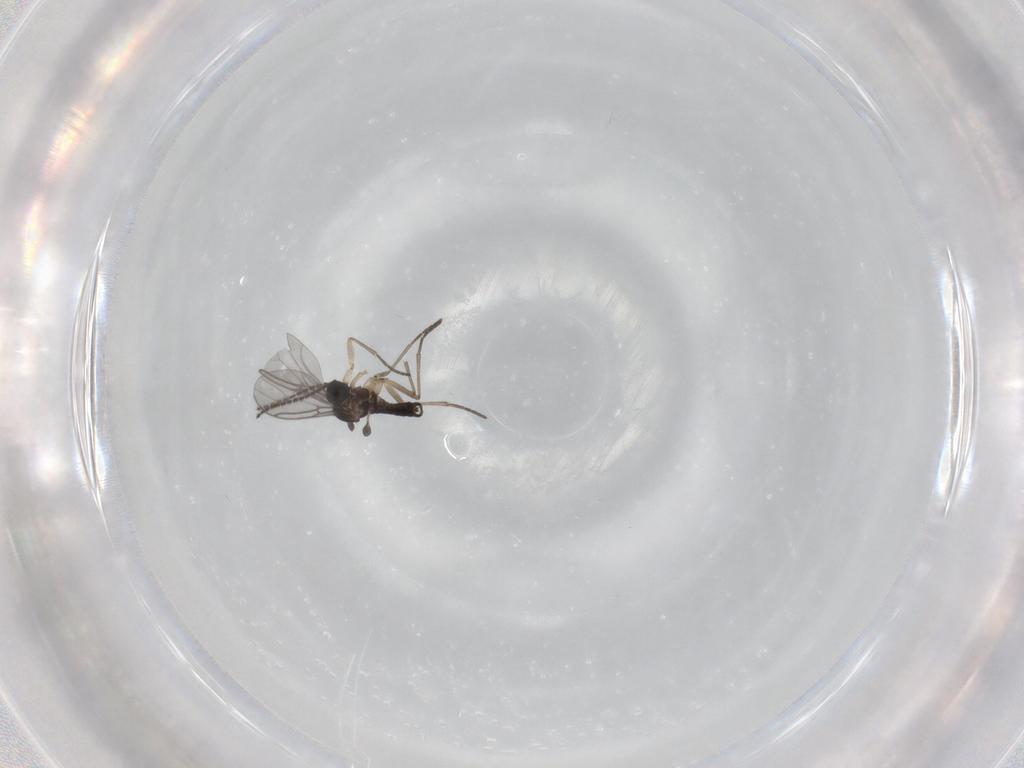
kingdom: Animalia
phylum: Arthropoda
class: Insecta
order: Diptera
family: Sciaridae
